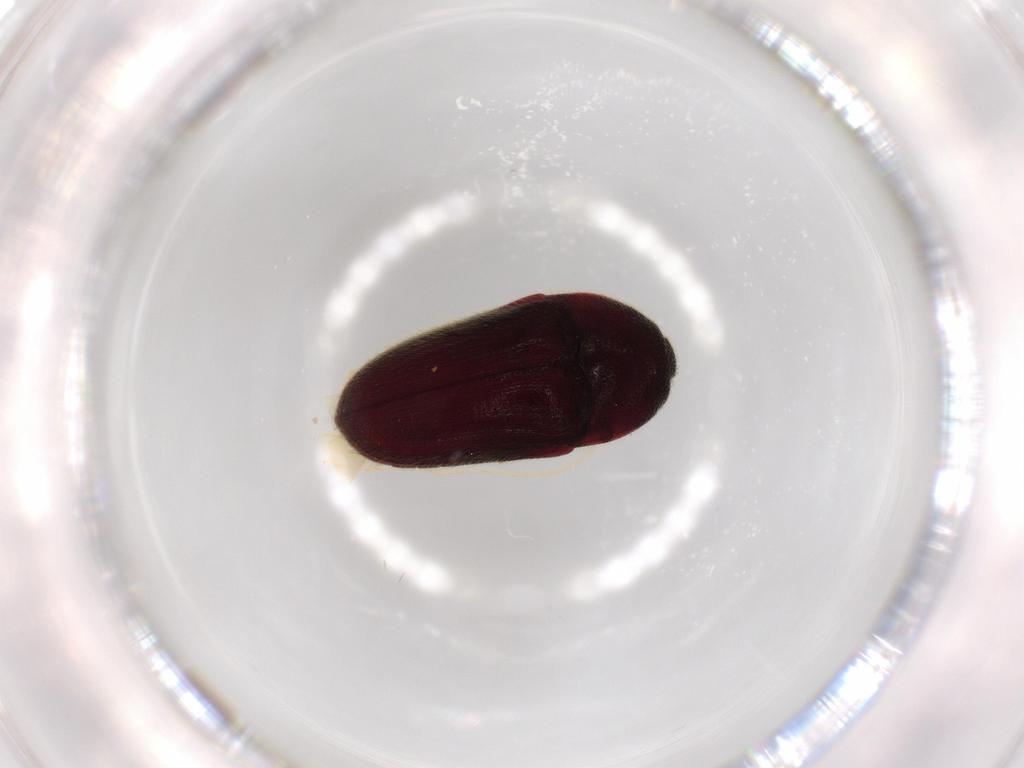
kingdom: Animalia
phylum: Arthropoda
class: Insecta
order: Coleoptera
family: Throscidae
